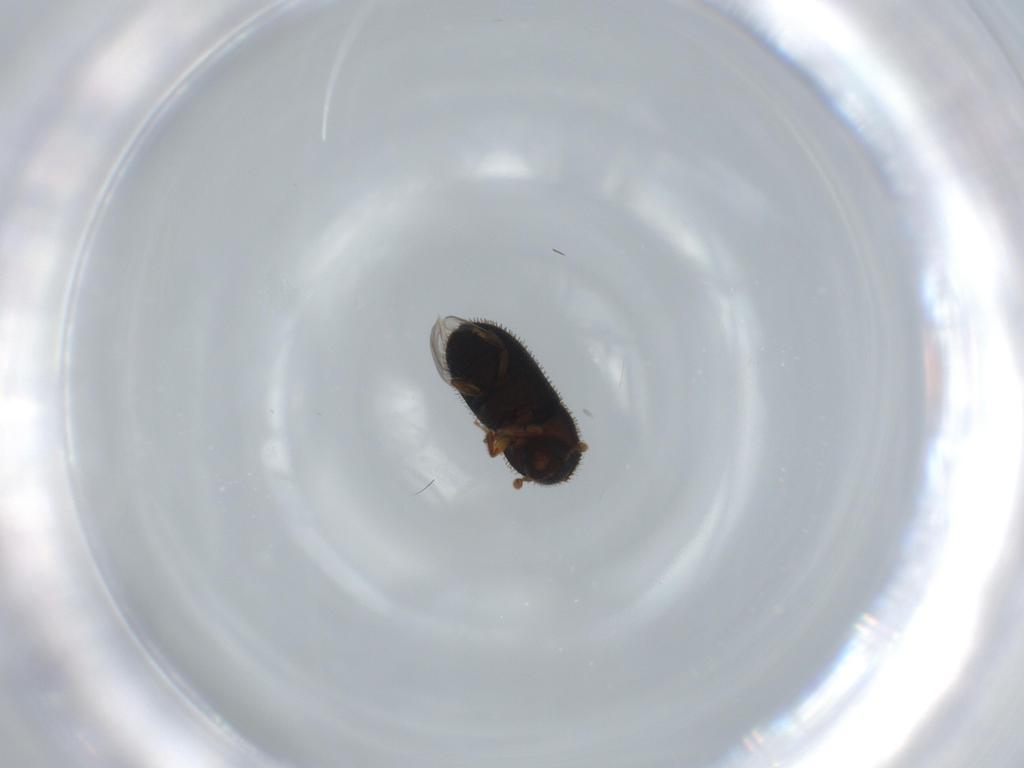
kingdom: Animalia
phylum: Arthropoda
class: Insecta
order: Coleoptera
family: Curculionidae
